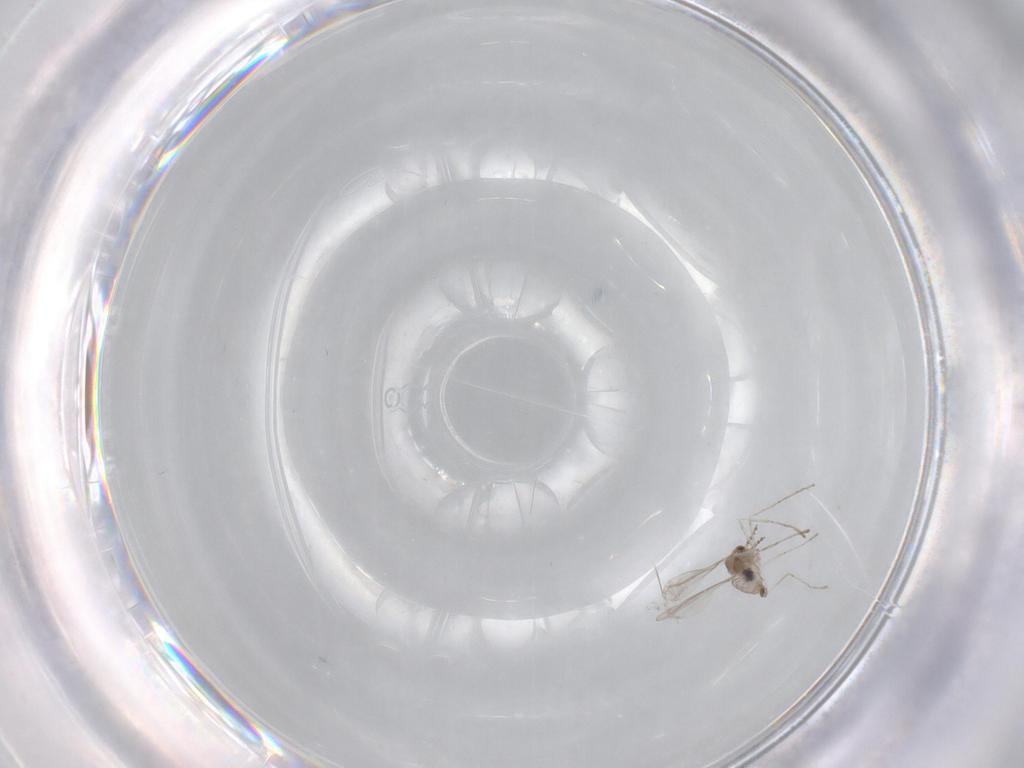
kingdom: Animalia
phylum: Arthropoda
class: Insecta
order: Diptera
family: Cecidomyiidae
